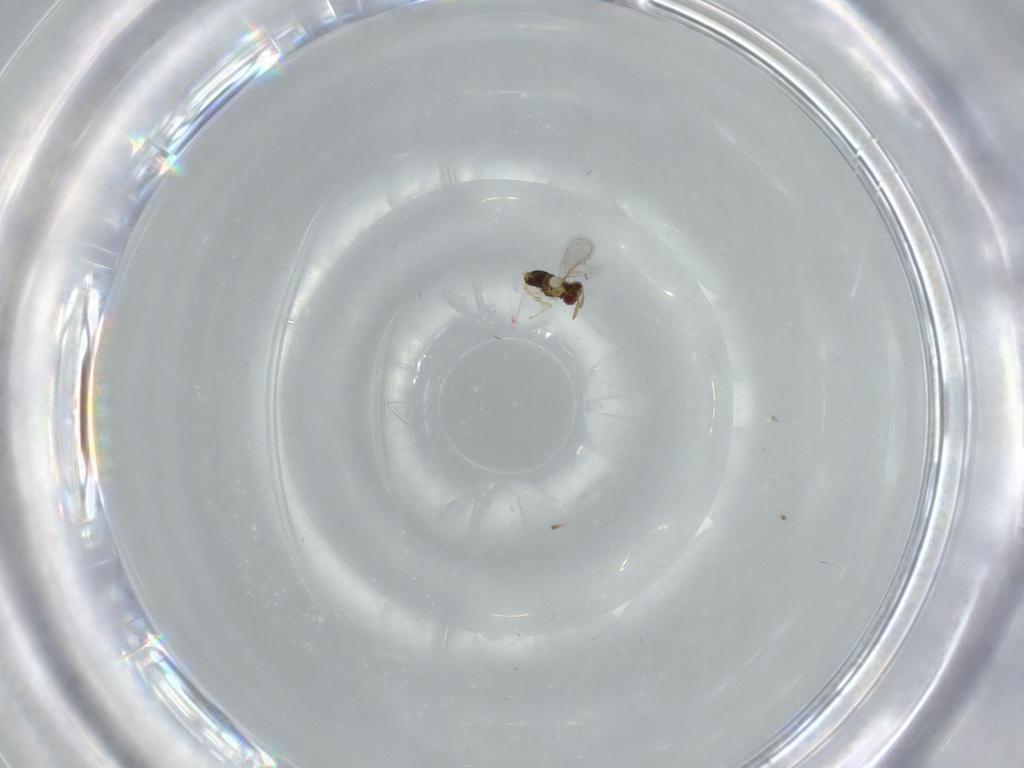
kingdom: Animalia
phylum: Arthropoda
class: Insecta
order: Hymenoptera
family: Aphelinidae
